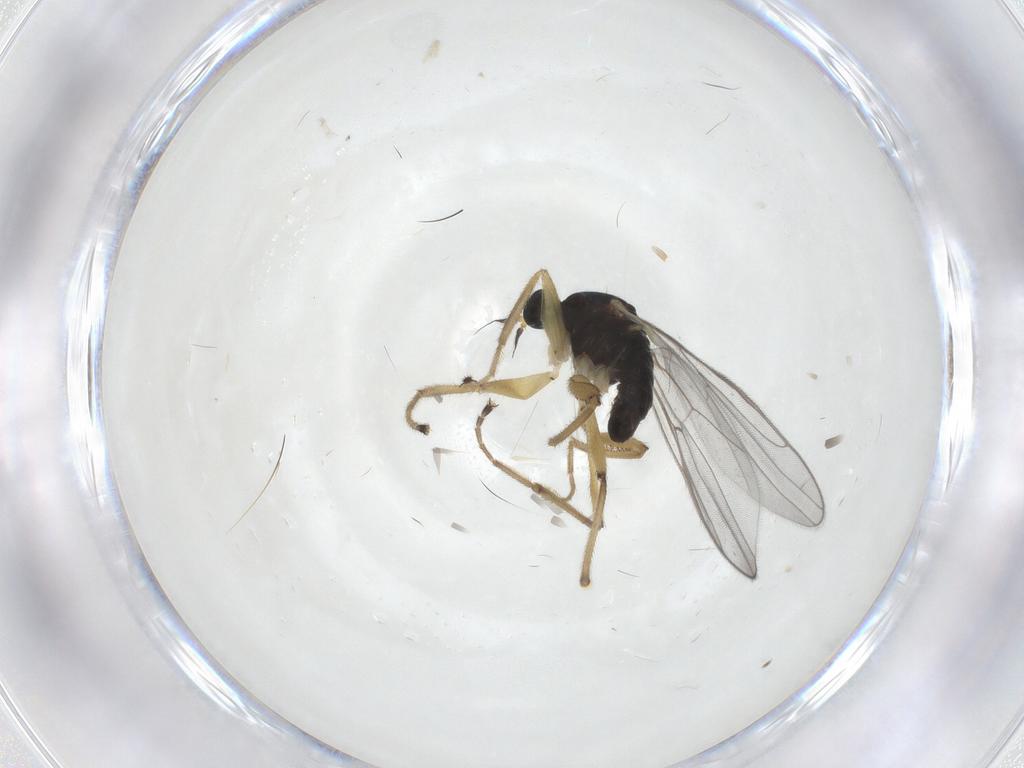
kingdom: Animalia
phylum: Arthropoda
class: Insecta
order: Diptera
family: Hybotidae
